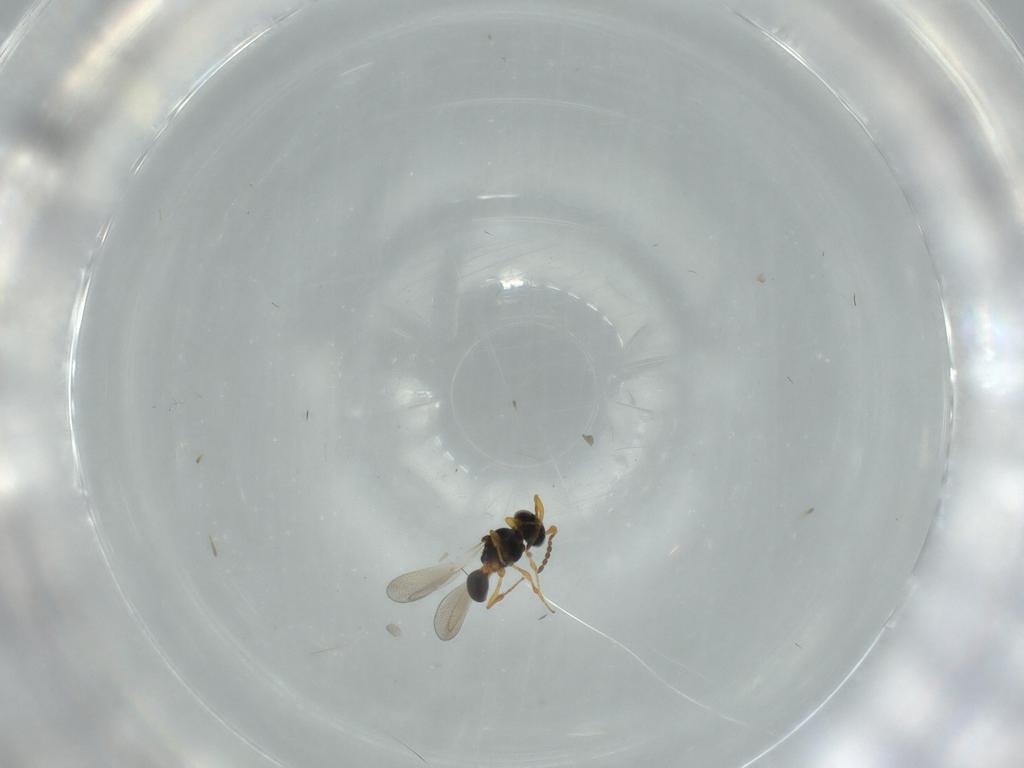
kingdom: Animalia
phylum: Arthropoda
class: Insecta
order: Hymenoptera
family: Platygastridae
